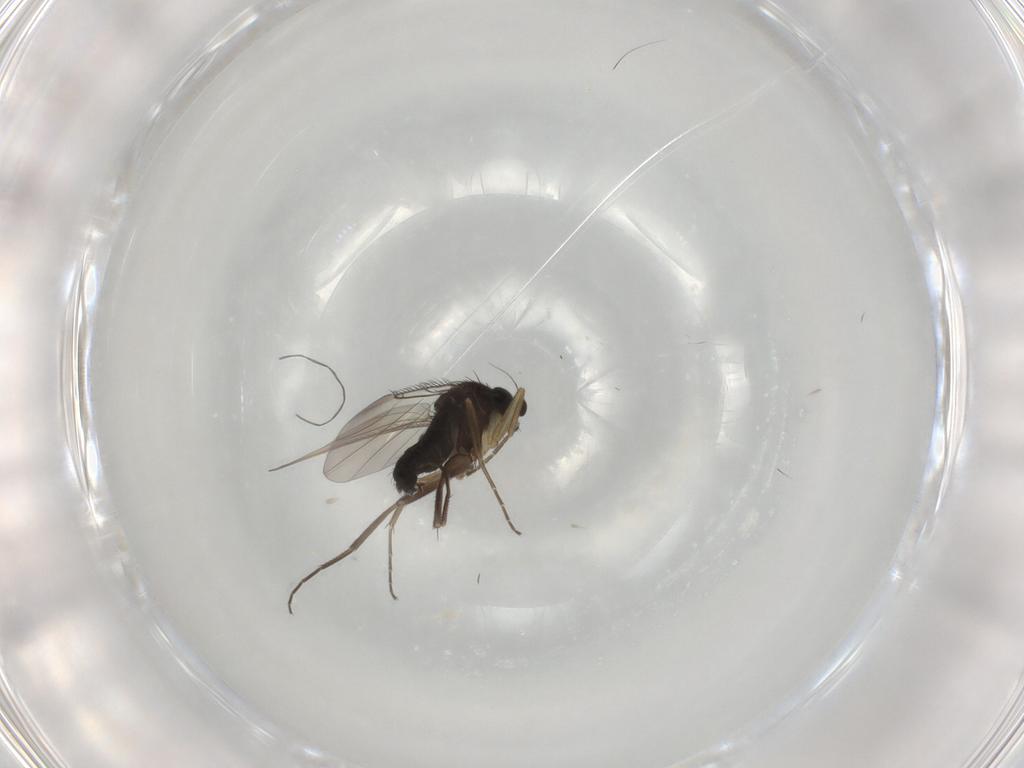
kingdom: Animalia
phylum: Arthropoda
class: Insecta
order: Diptera
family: Phoridae
